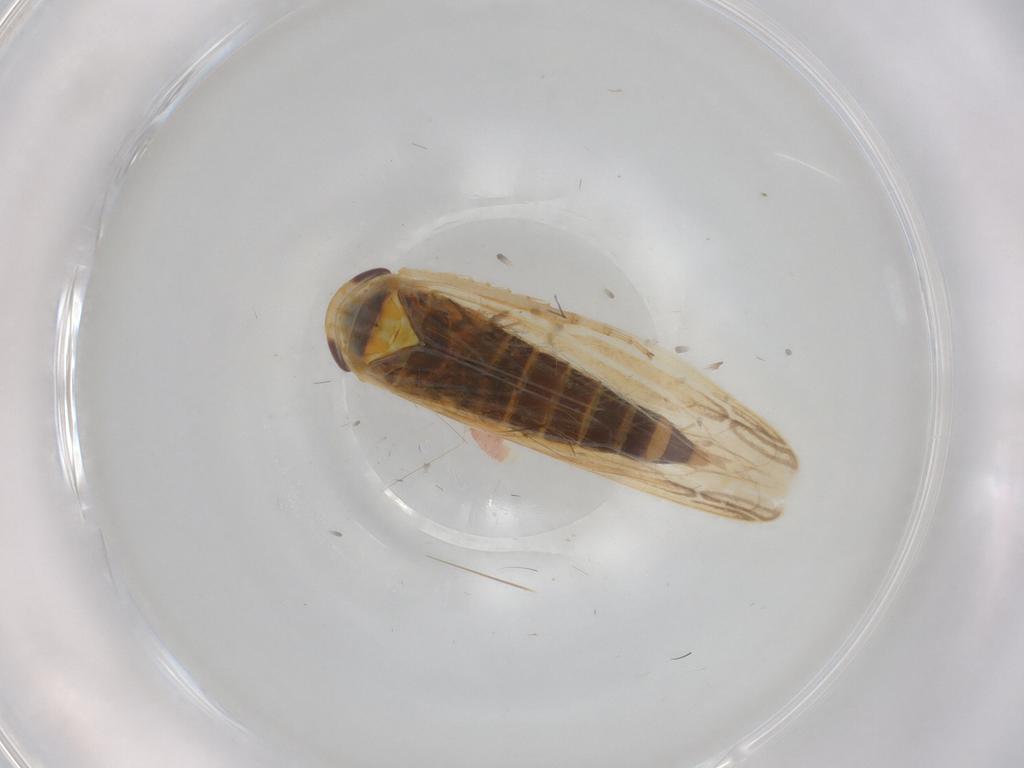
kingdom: Animalia
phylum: Arthropoda
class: Insecta
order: Hemiptera
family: Cicadellidae
